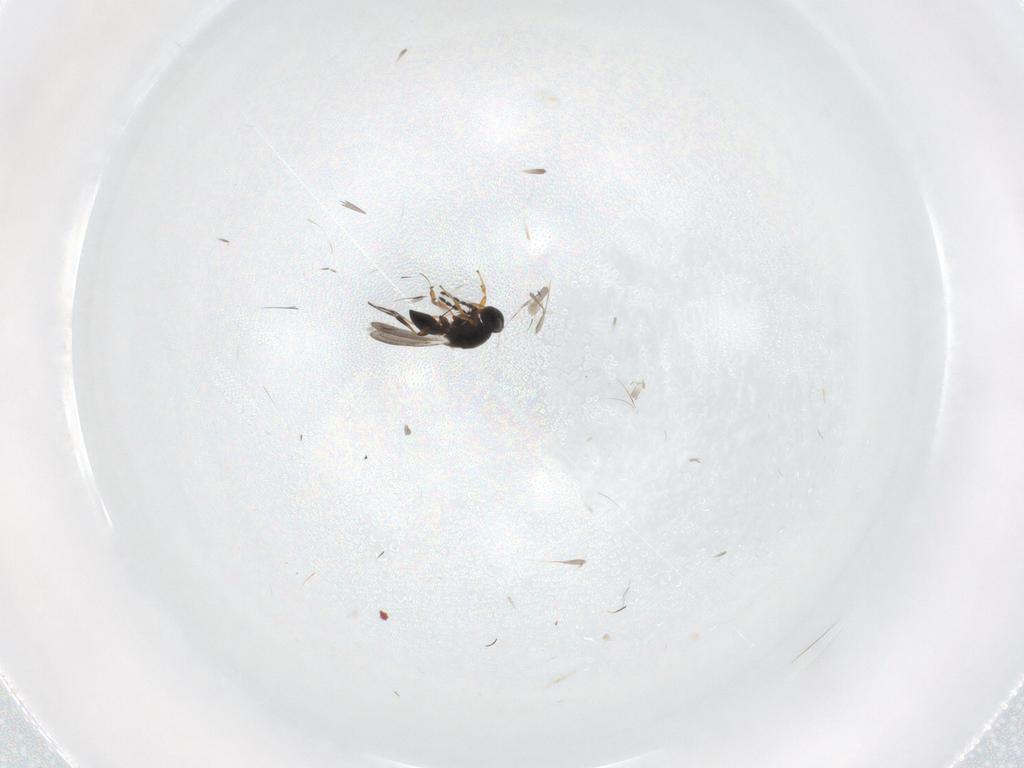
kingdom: Animalia
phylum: Arthropoda
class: Insecta
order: Hymenoptera
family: Platygastridae
